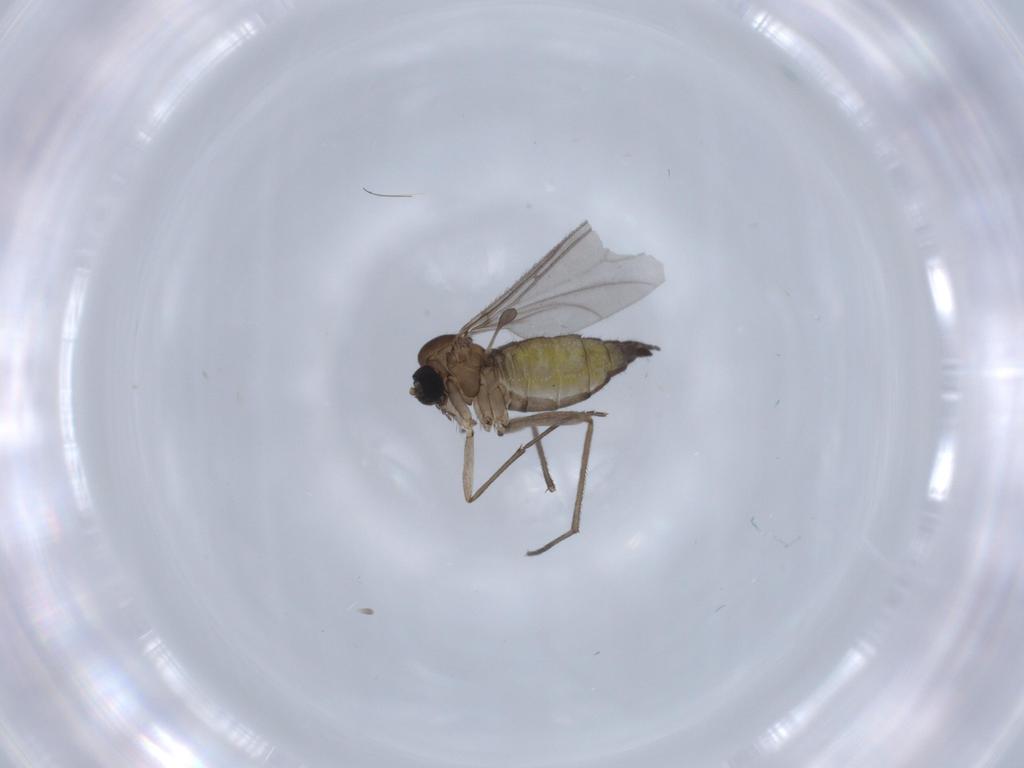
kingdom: Animalia
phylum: Arthropoda
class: Insecta
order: Diptera
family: Sciaridae
